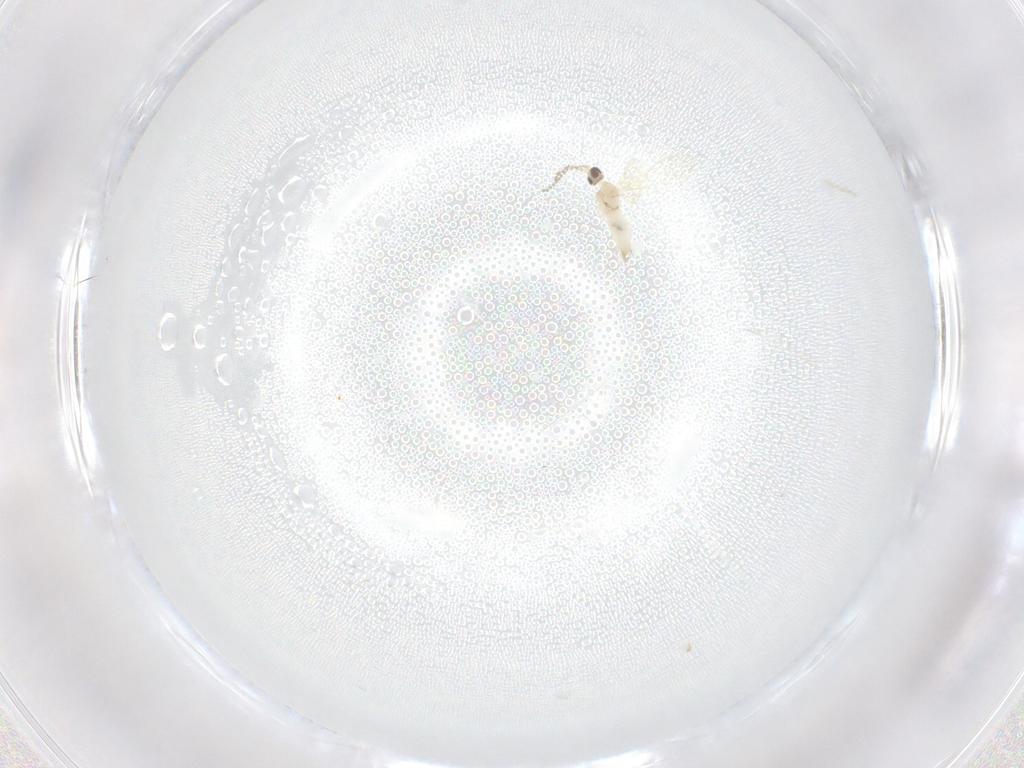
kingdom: Animalia
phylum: Arthropoda
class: Insecta
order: Diptera
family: Cecidomyiidae
